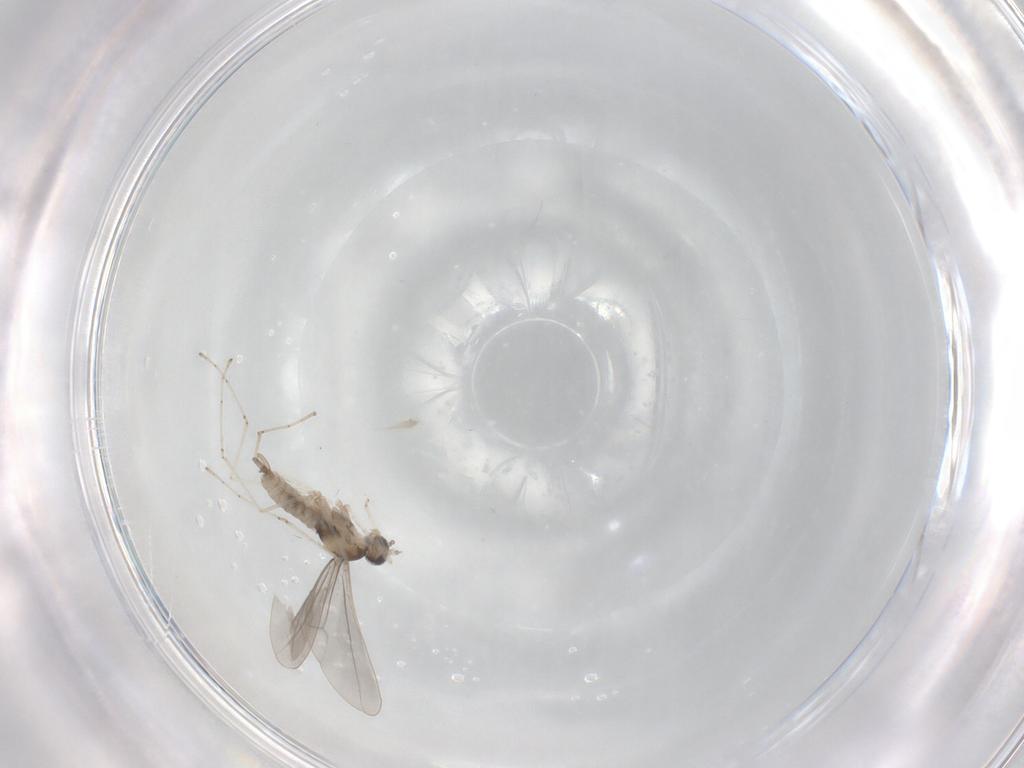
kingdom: Animalia
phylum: Arthropoda
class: Insecta
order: Diptera
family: Cecidomyiidae
